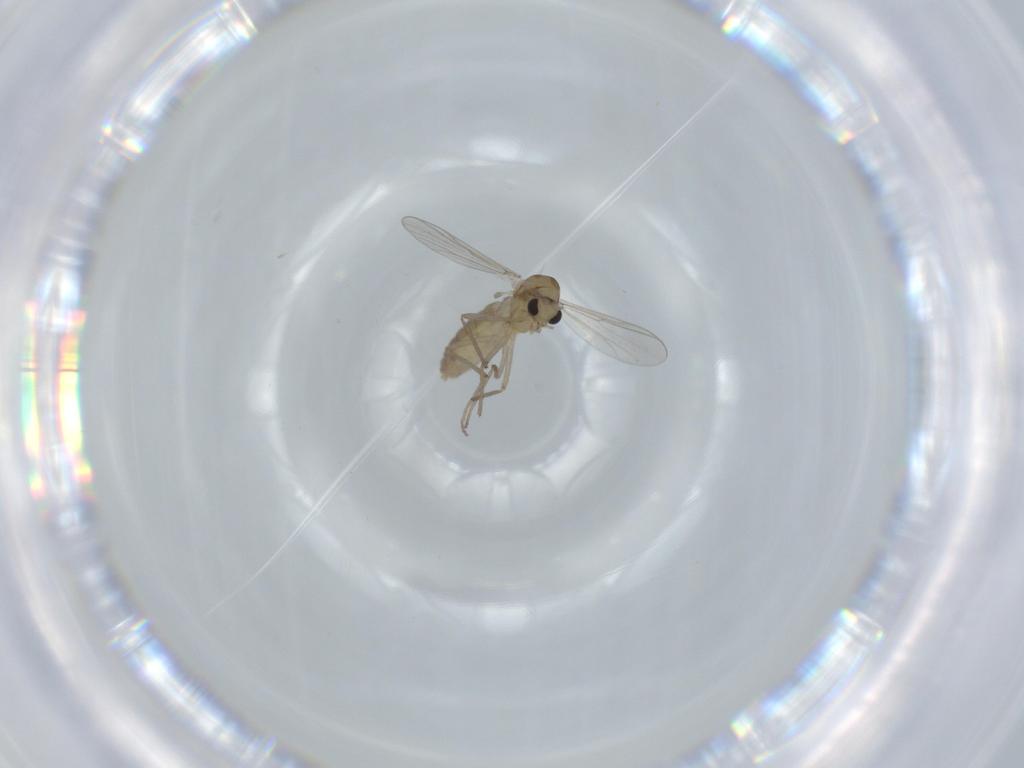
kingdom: Animalia
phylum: Arthropoda
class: Insecta
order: Diptera
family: Chironomidae
